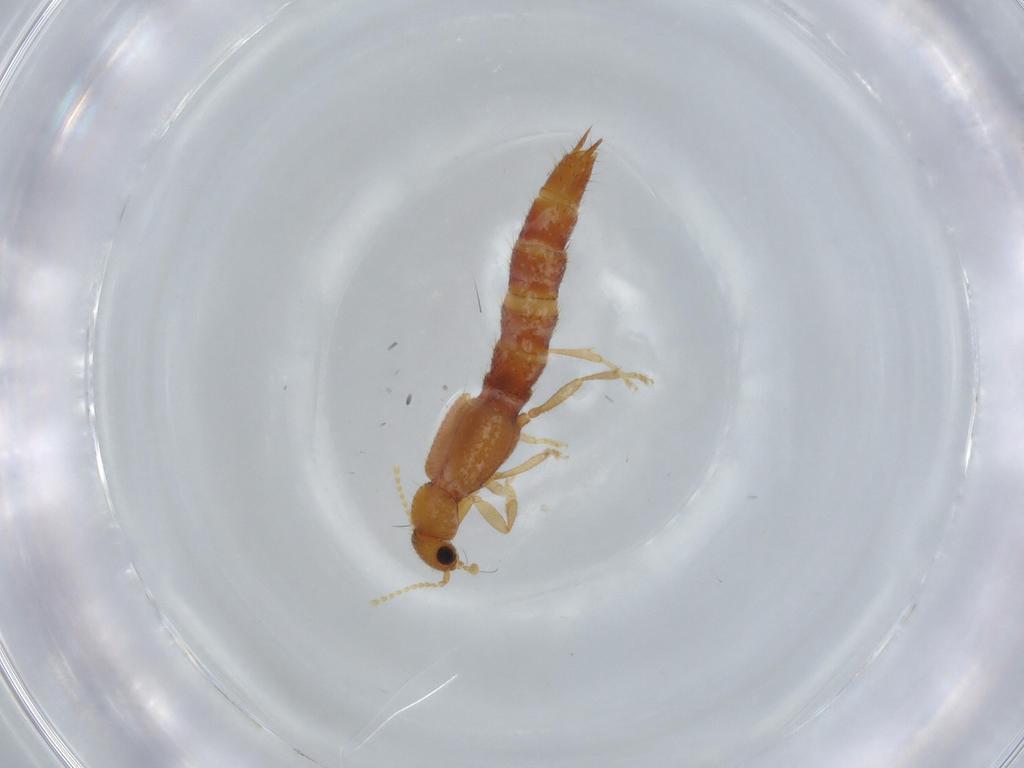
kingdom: Animalia
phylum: Arthropoda
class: Insecta
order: Coleoptera
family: Staphylinidae
